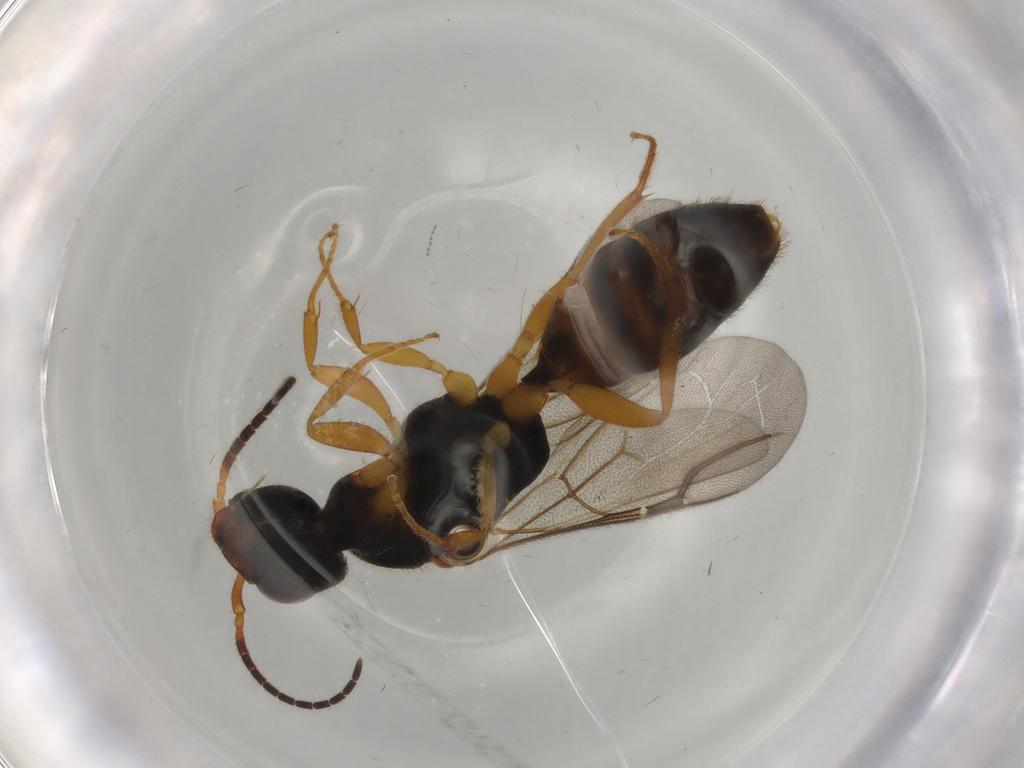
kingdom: Animalia
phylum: Arthropoda
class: Insecta
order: Hymenoptera
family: Bethylidae
